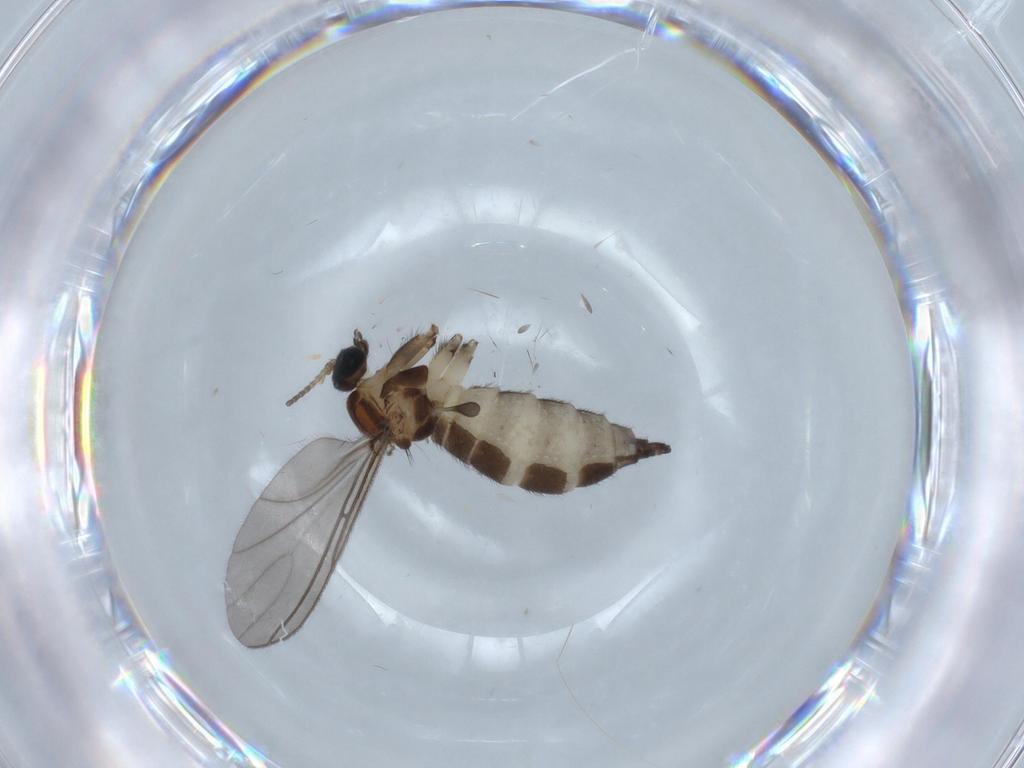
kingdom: Animalia
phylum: Arthropoda
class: Insecta
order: Diptera
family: Sciaridae
